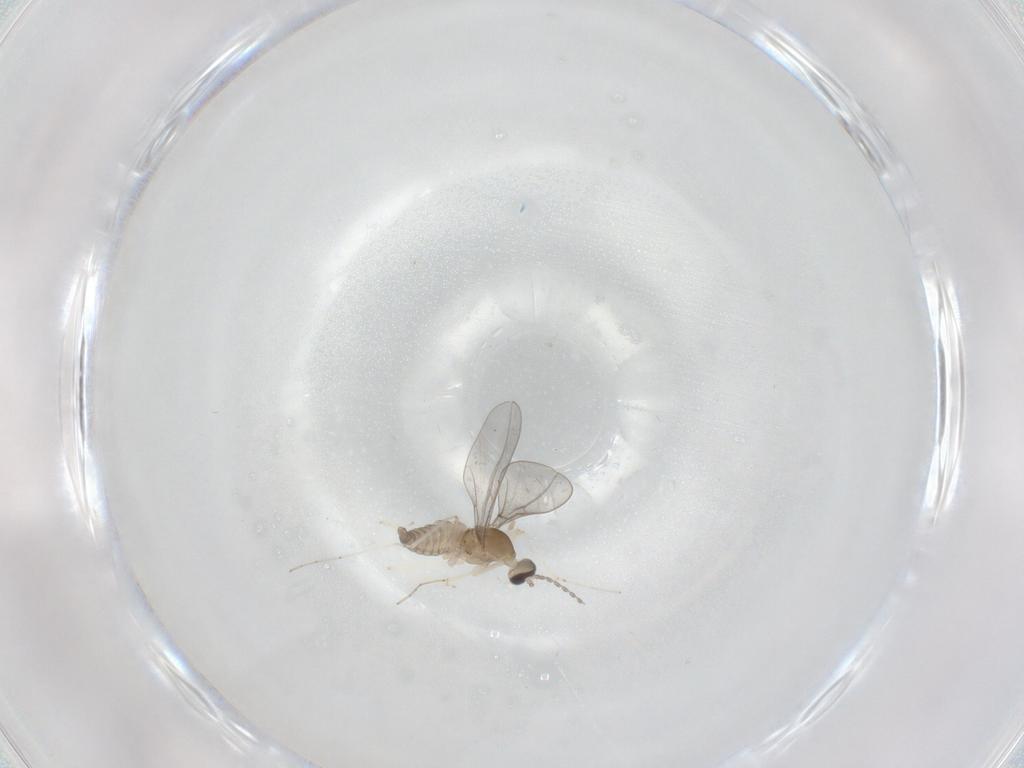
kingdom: Animalia
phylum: Arthropoda
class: Insecta
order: Diptera
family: Cecidomyiidae
